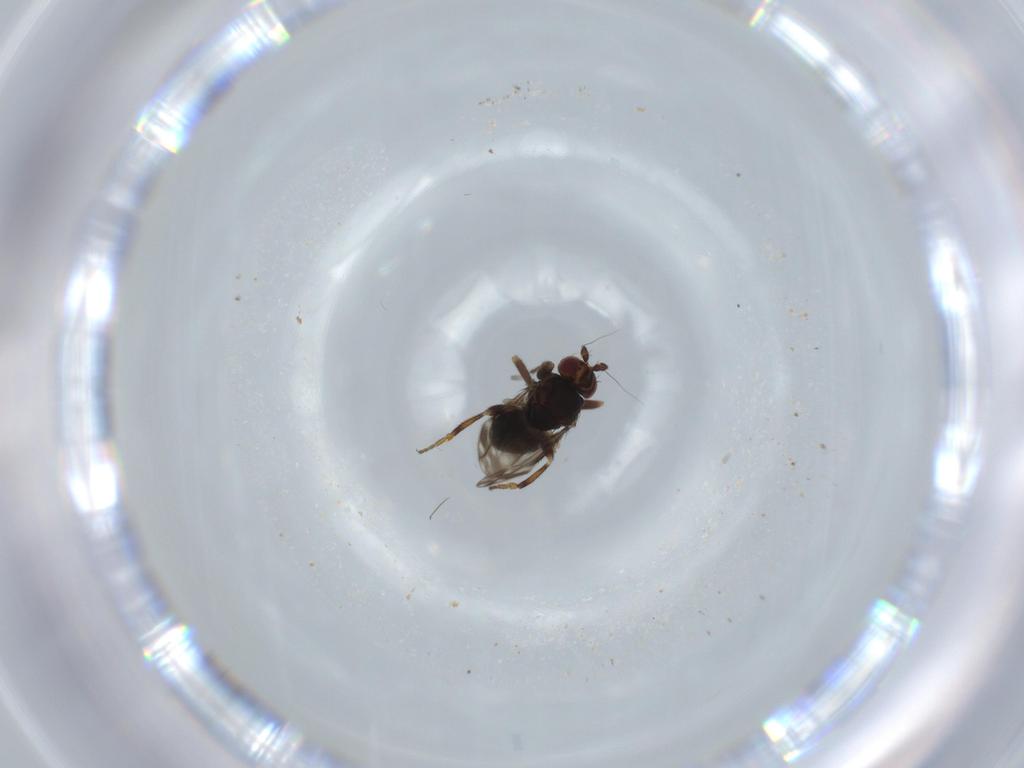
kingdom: Animalia
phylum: Arthropoda
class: Insecta
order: Diptera
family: Sphaeroceridae
